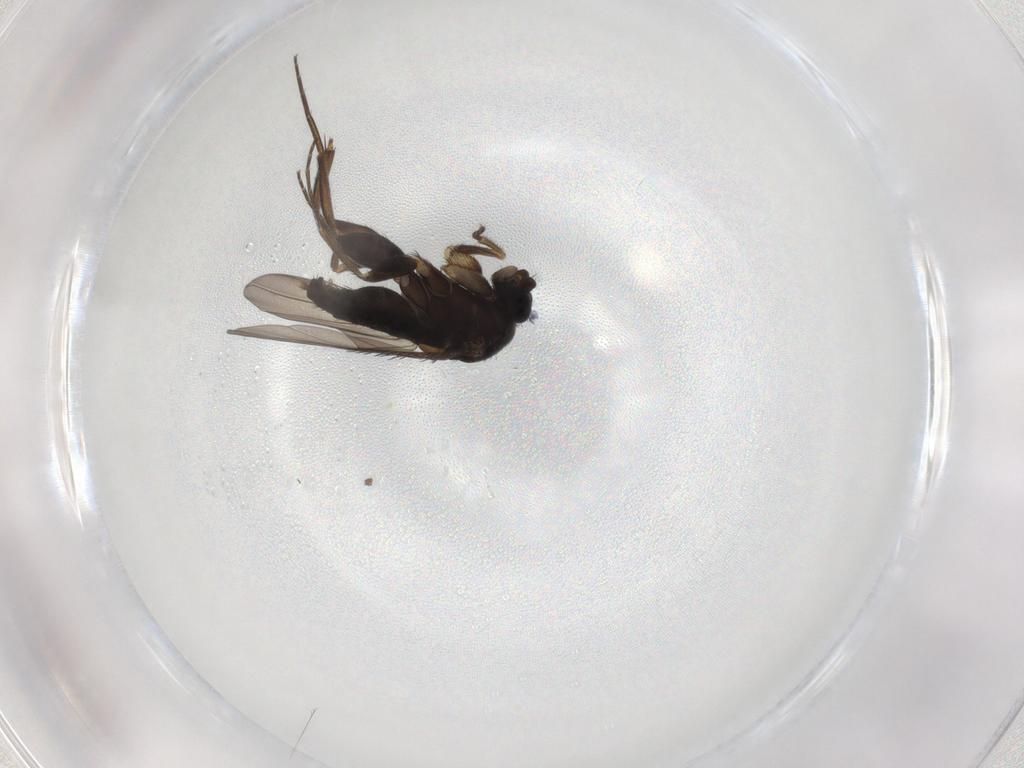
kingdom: Animalia
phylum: Arthropoda
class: Insecta
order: Diptera
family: Phoridae
